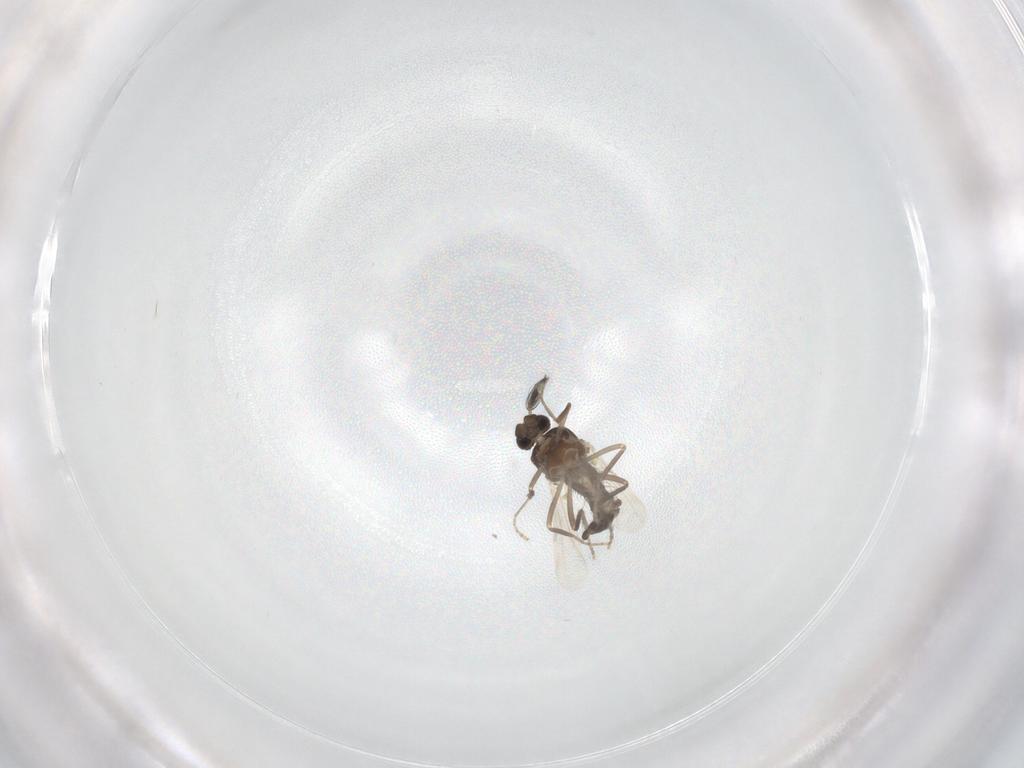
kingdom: Animalia
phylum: Arthropoda
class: Insecta
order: Diptera
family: Ceratopogonidae
